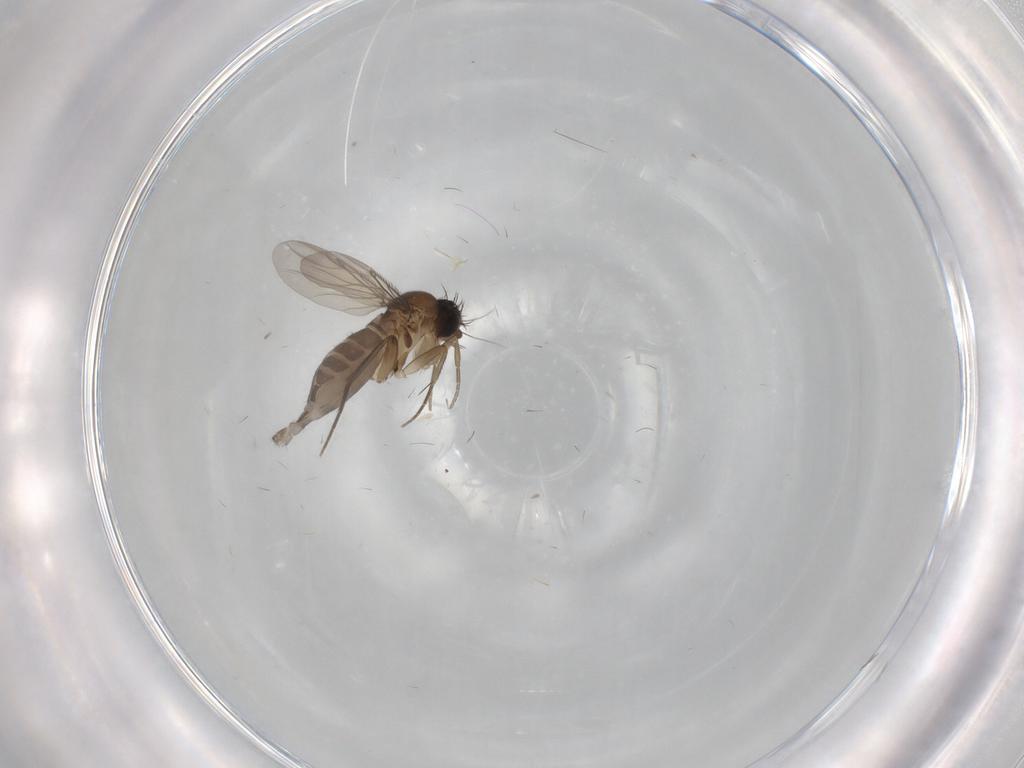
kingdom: Animalia
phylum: Arthropoda
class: Insecta
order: Diptera
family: Phoridae
